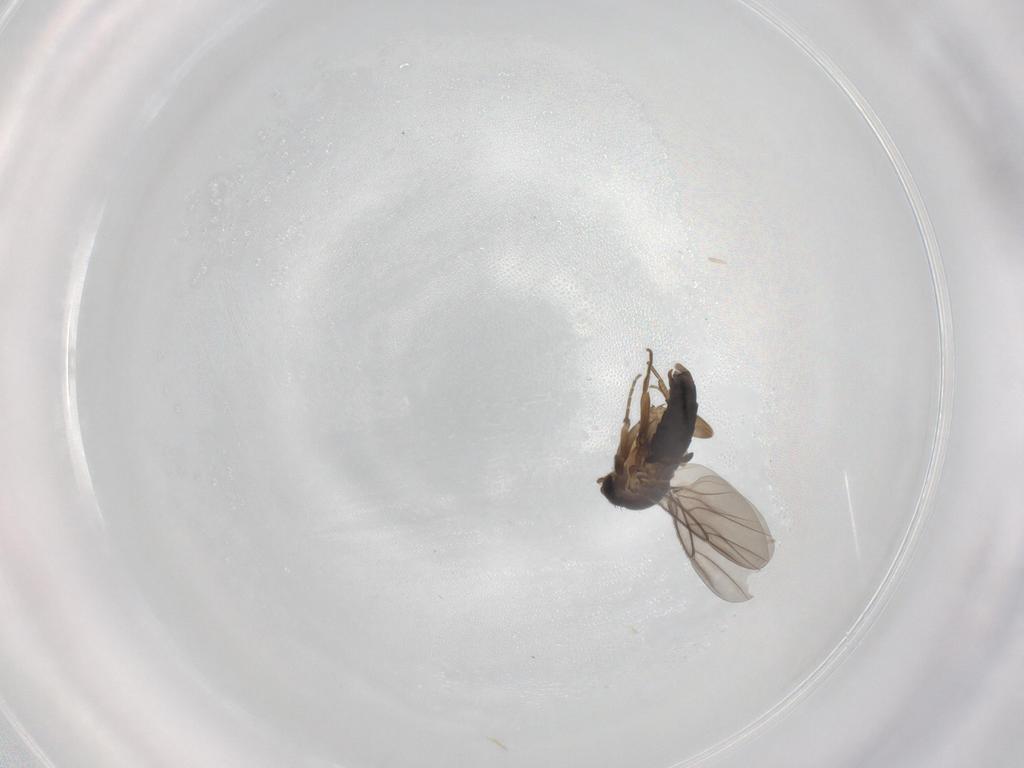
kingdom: Animalia
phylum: Arthropoda
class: Insecta
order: Diptera
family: Phoridae
